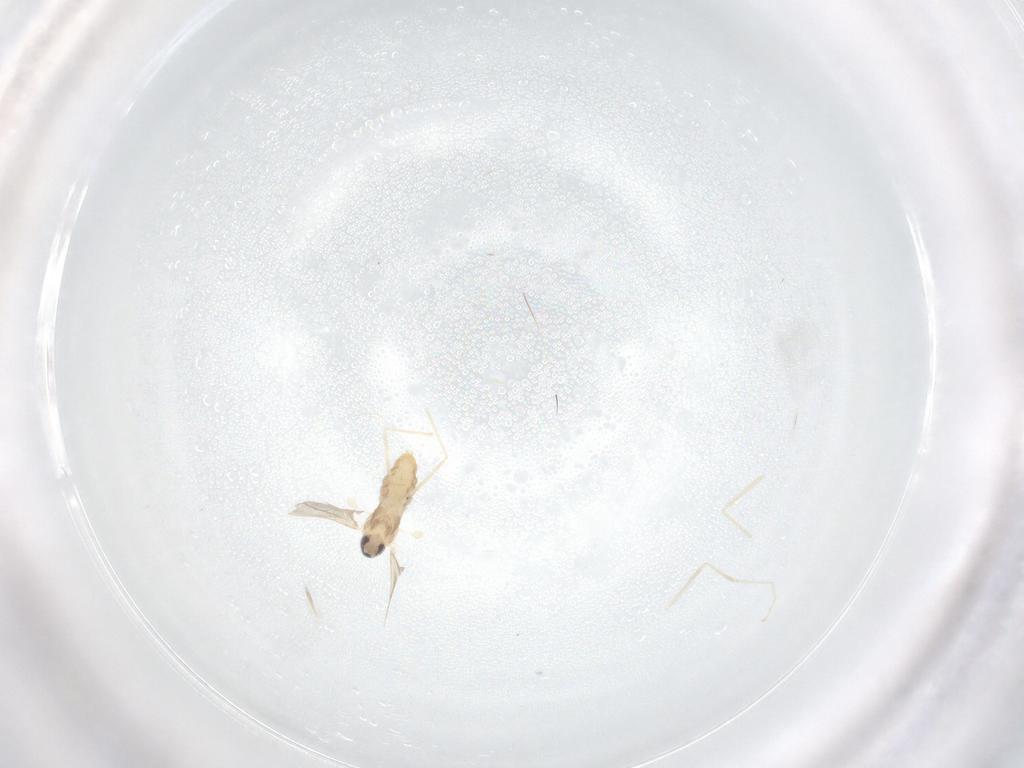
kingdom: Animalia
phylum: Arthropoda
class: Insecta
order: Diptera
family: Cecidomyiidae
